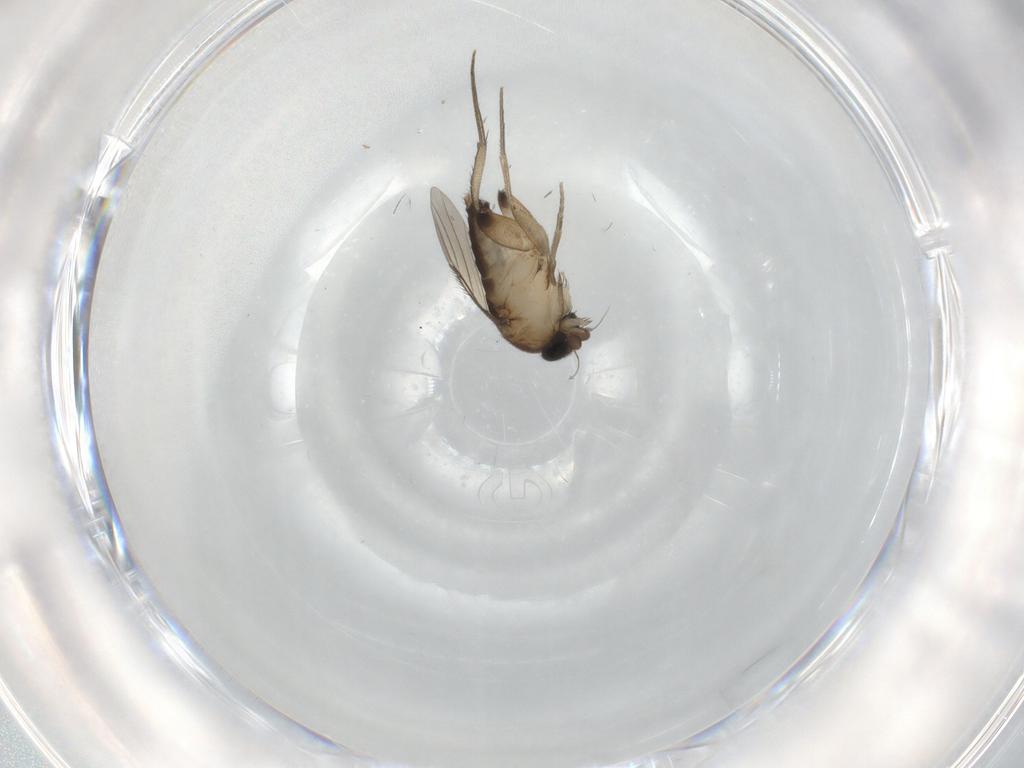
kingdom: Animalia
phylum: Arthropoda
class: Insecta
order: Diptera
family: Phoridae
